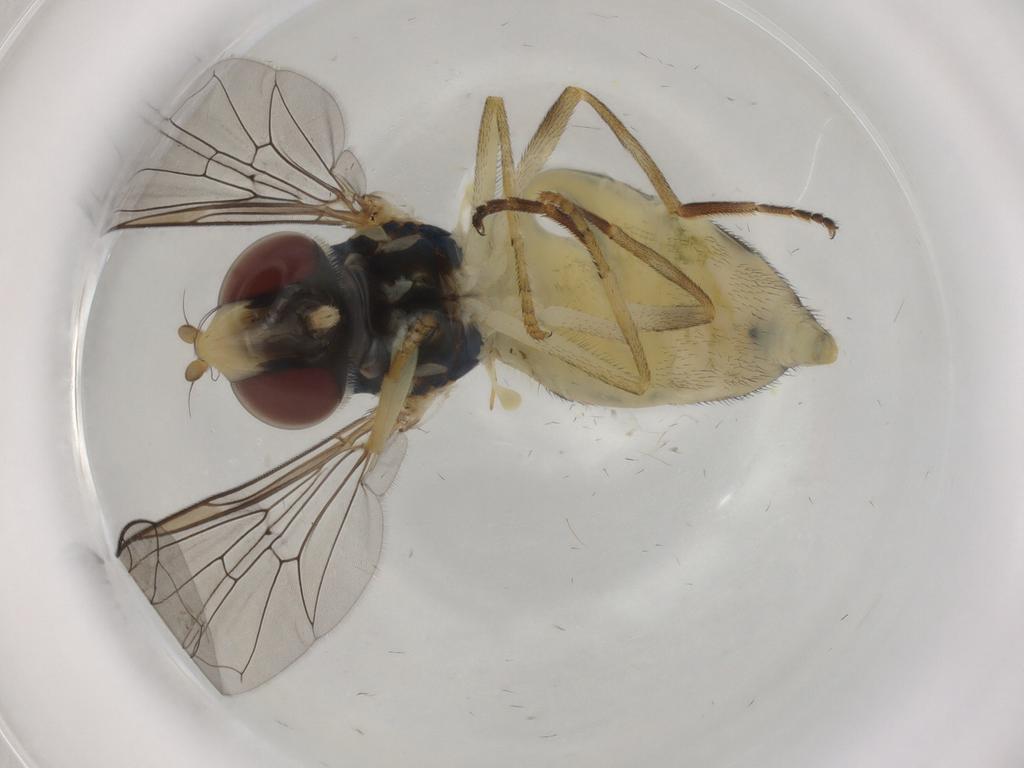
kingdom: Animalia
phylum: Arthropoda
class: Insecta
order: Diptera
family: Syrphidae
